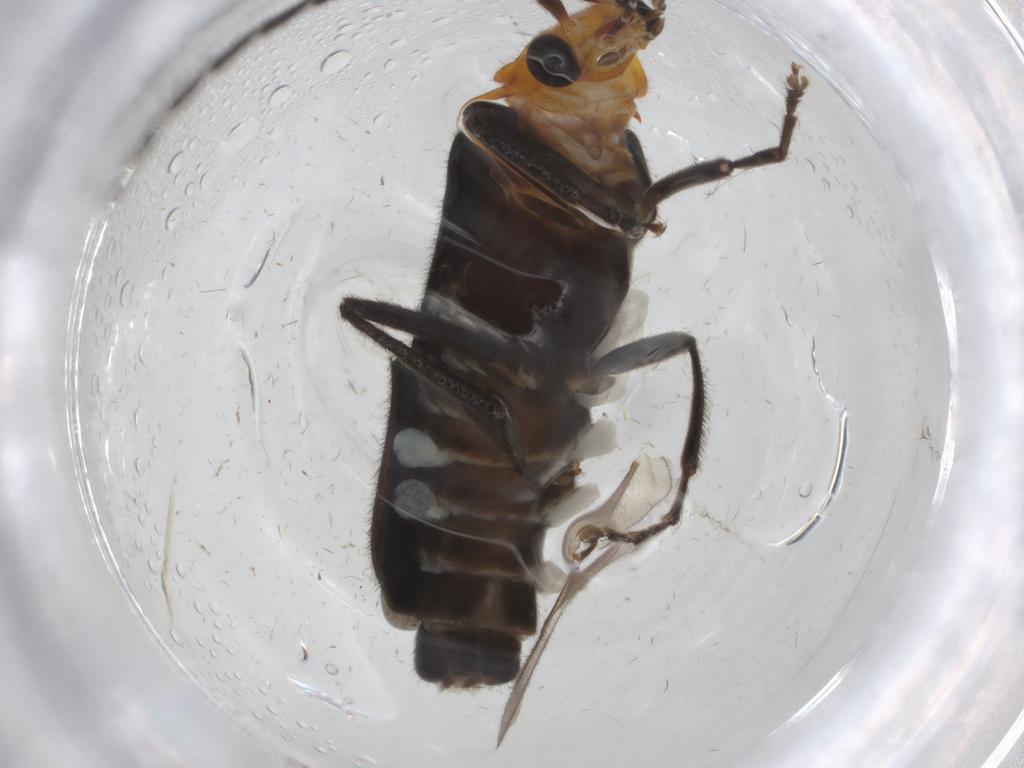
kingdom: Animalia
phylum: Arthropoda
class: Insecta
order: Coleoptera
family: Cantharidae
